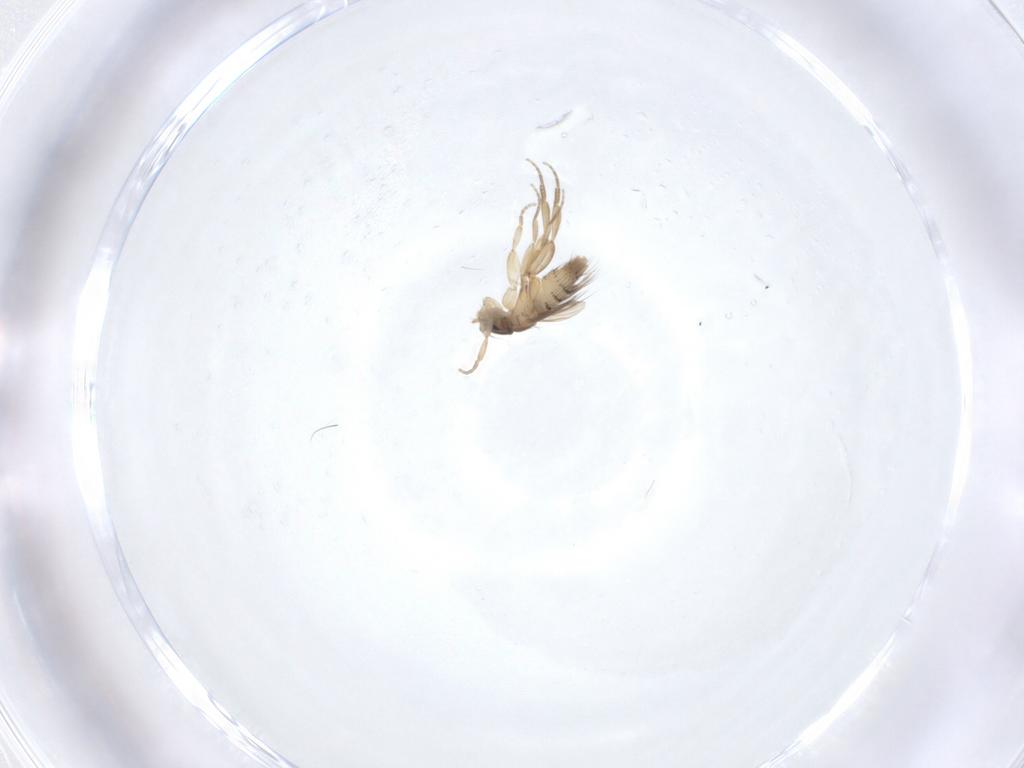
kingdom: Animalia
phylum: Arthropoda
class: Insecta
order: Diptera
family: Phoridae
